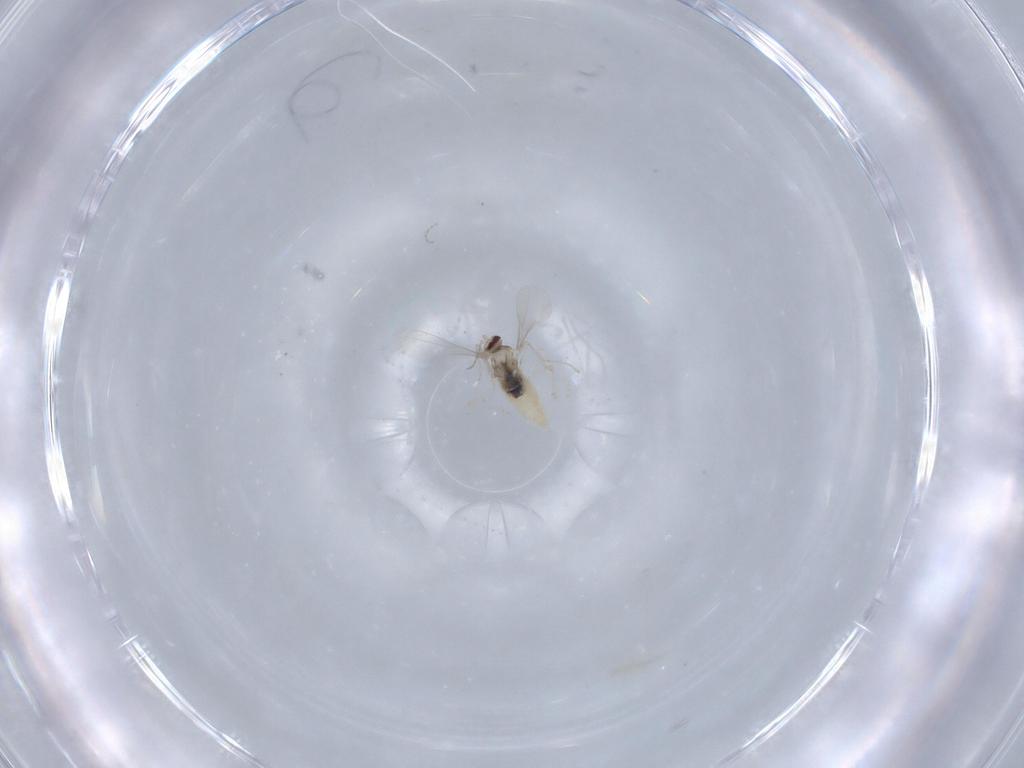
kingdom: Animalia
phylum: Arthropoda
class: Insecta
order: Diptera
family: Cecidomyiidae
